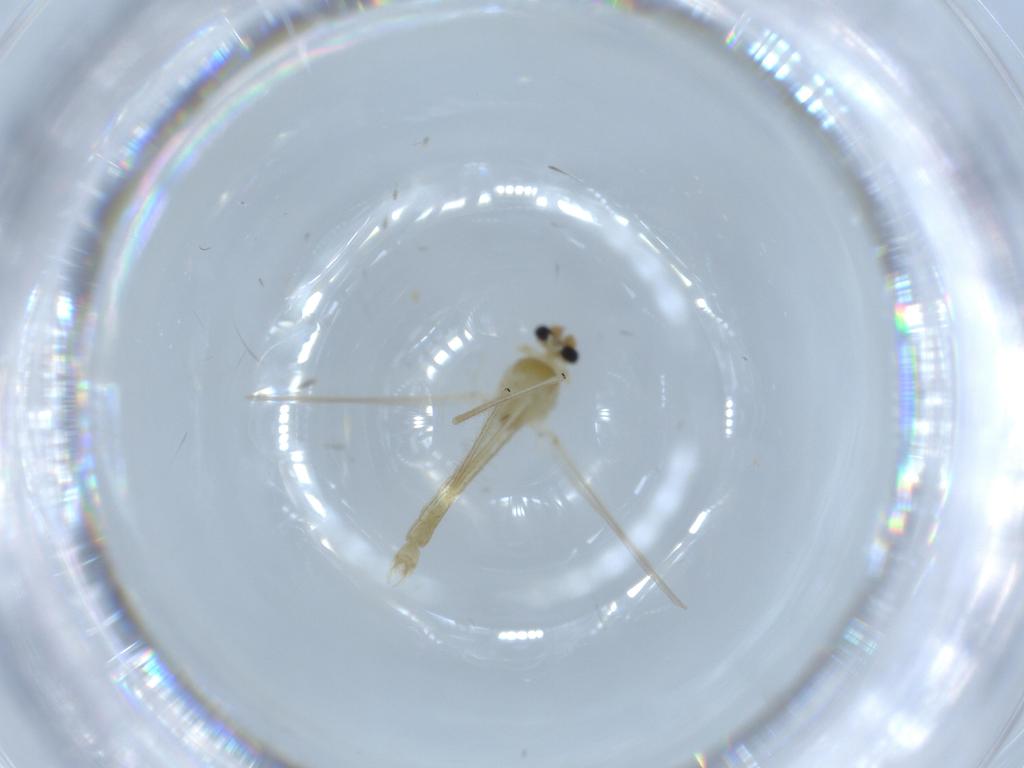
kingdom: Animalia
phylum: Arthropoda
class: Insecta
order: Diptera
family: Chironomidae
